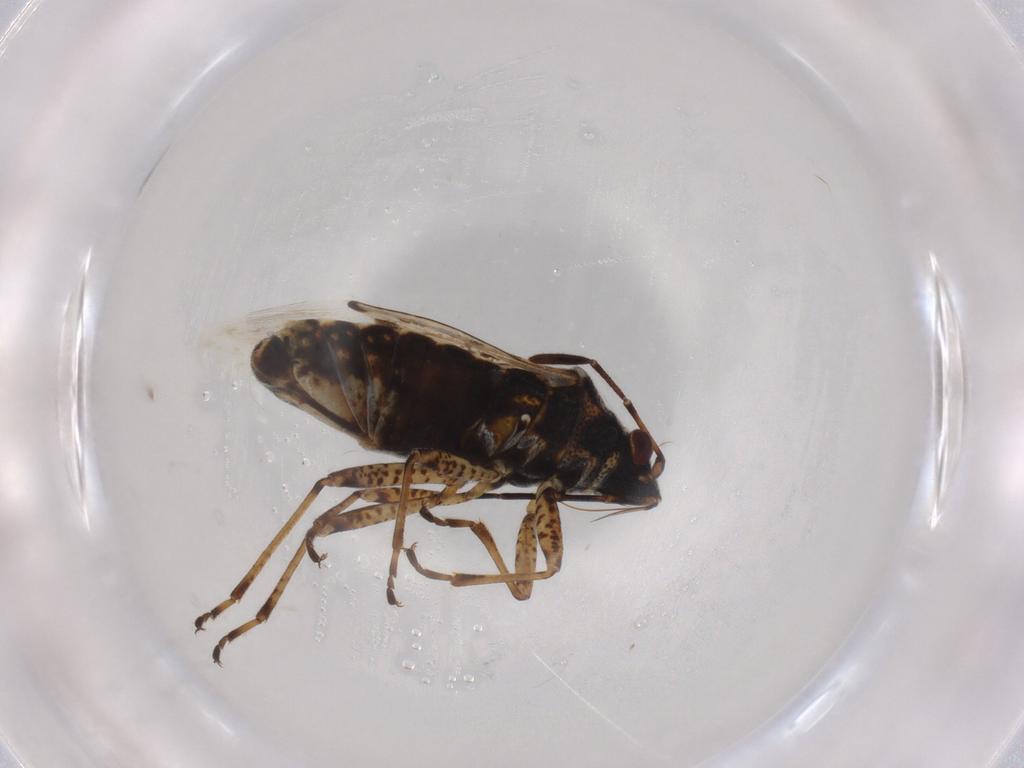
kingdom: Animalia
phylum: Arthropoda
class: Insecta
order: Hemiptera
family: Lygaeidae
